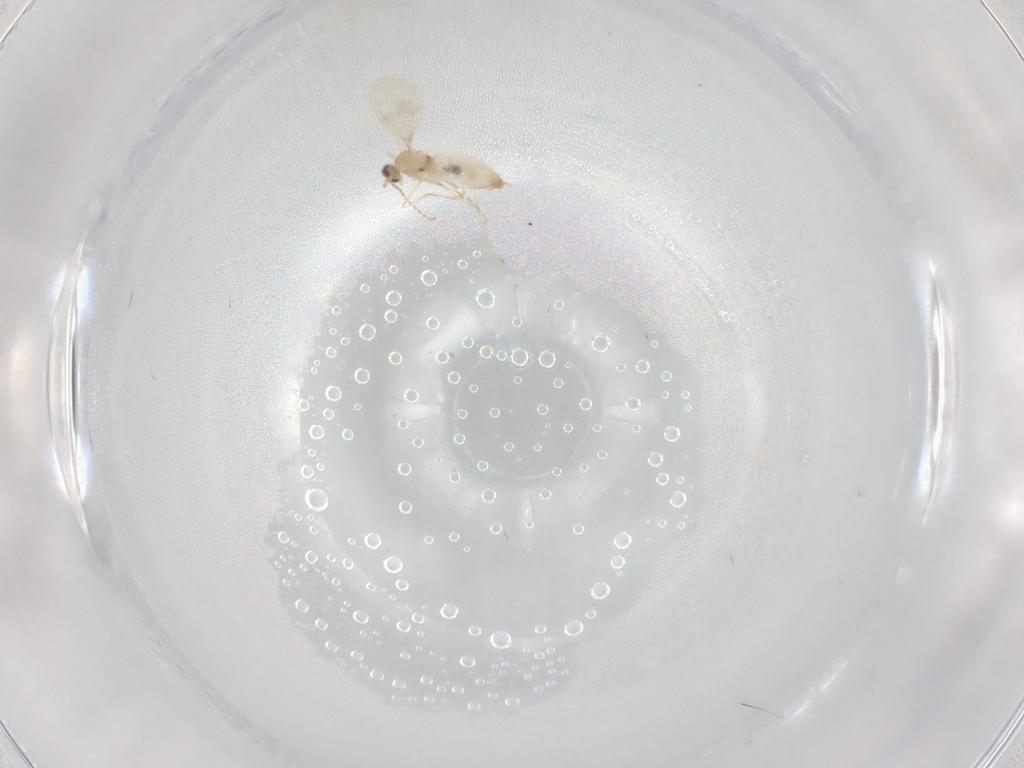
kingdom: Animalia
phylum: Arthropoda
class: Insecta
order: Diptera
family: Cecidomyiidae
